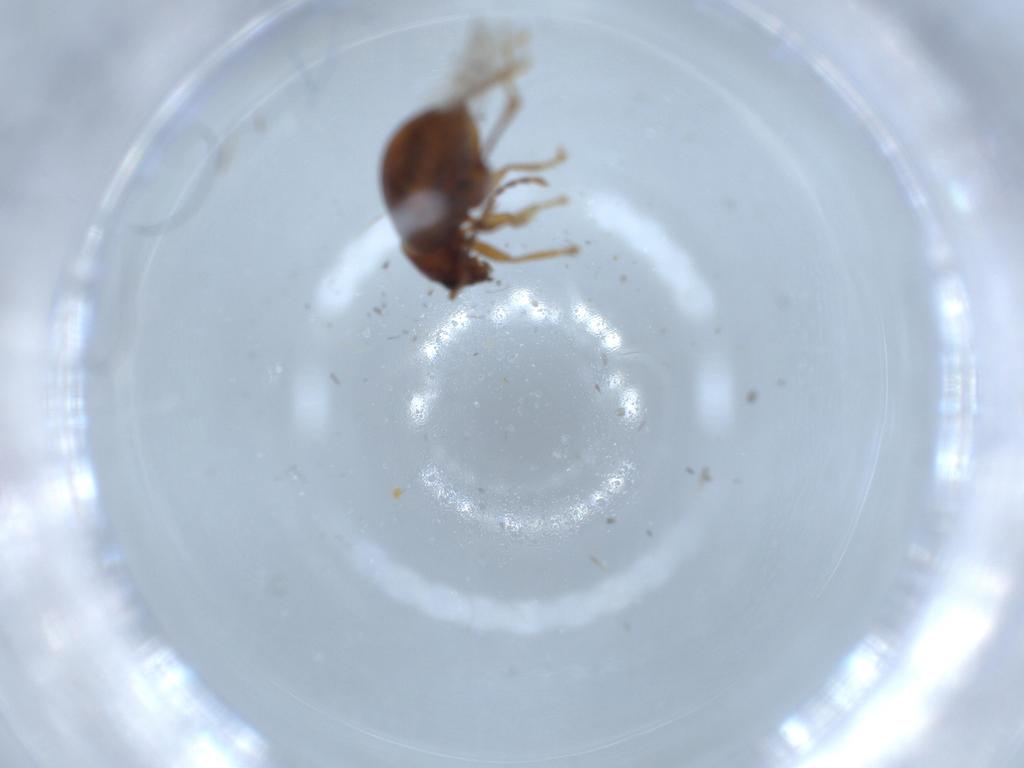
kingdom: Animalia
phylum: Arthropoda
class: Insecta
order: Coleoptera
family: Chrysomelidae
